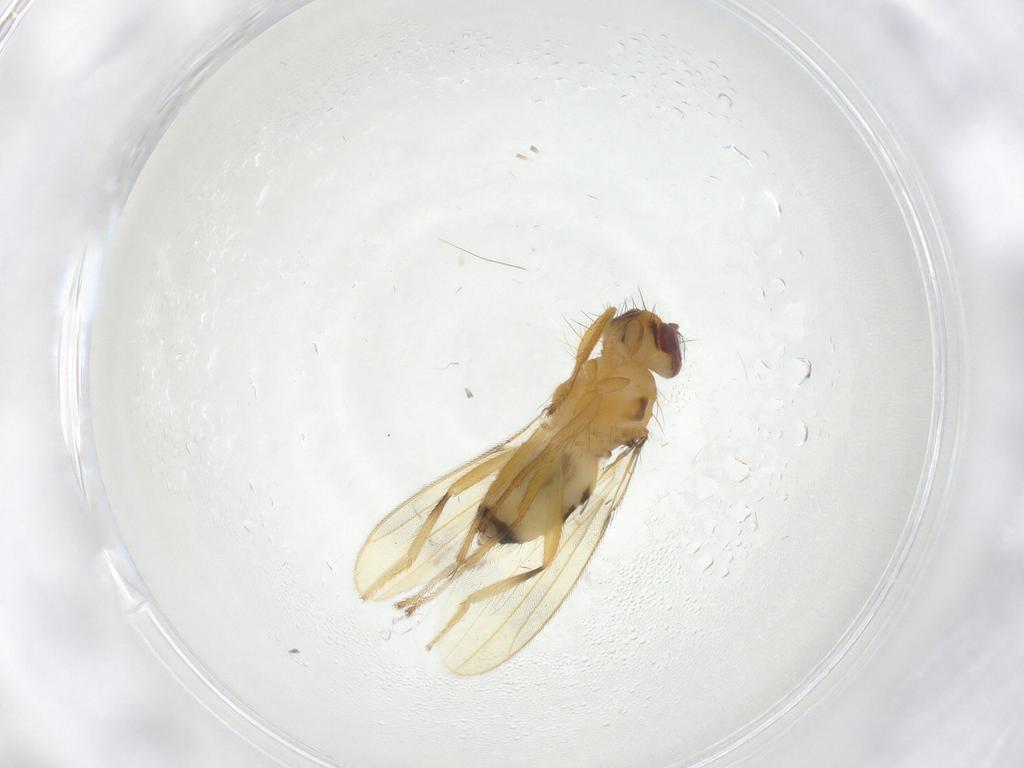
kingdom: Animalia
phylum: Arthropoda
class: Insecta
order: Diptera
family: Periscelididae
